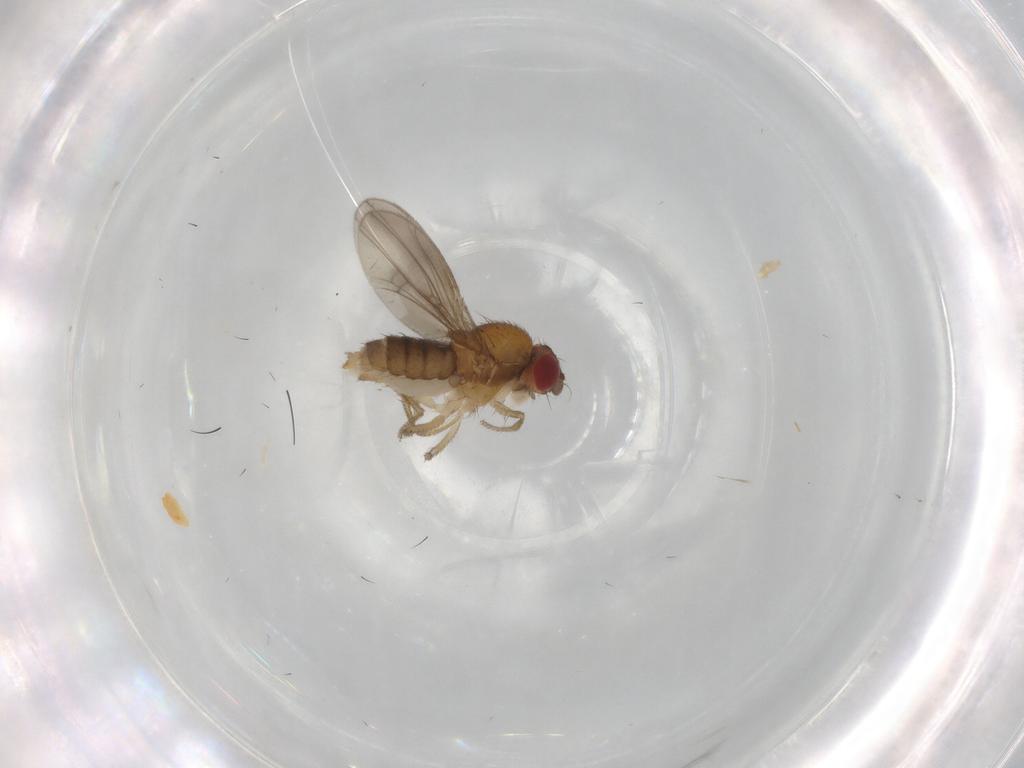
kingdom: Animalia
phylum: Arthropoda
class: Insecta
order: Diptera
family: Drosophilidae
